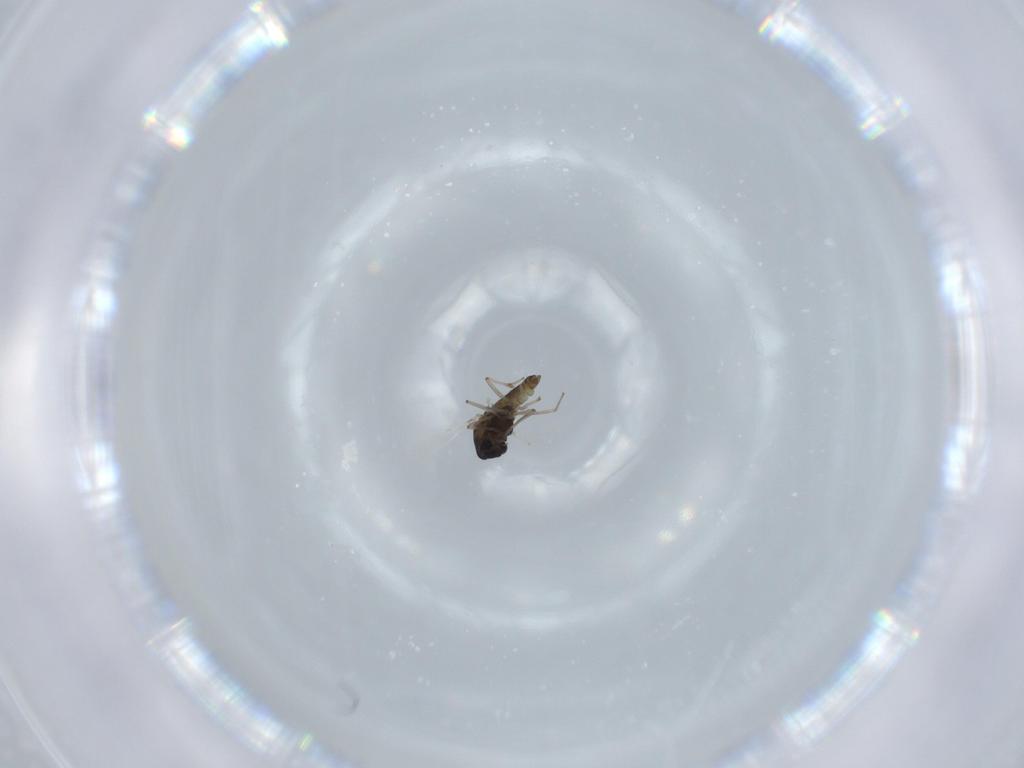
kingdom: Animalia
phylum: Arthropoda
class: Insecta
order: Diptera
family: Chironomidae
